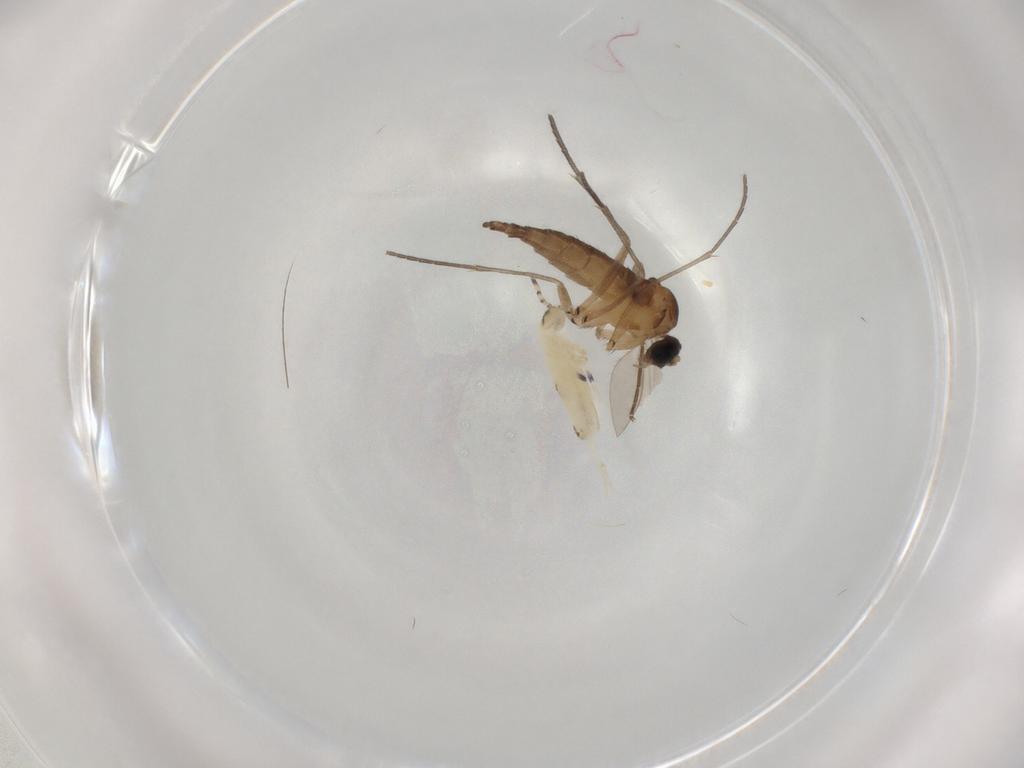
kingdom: Animalia
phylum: Arthropoda
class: Insecta
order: Diptera
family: Sciaridae
